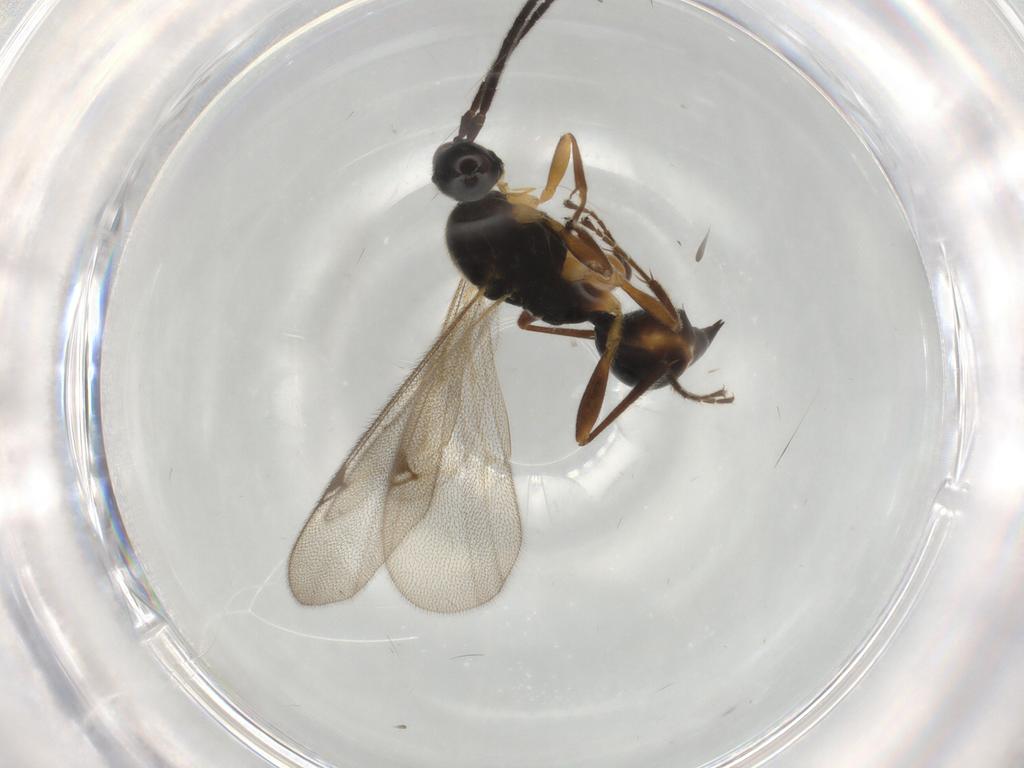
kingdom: Animalia
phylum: Arthropoda
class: Insecta
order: Hymenoptera
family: Proctotrupidae
